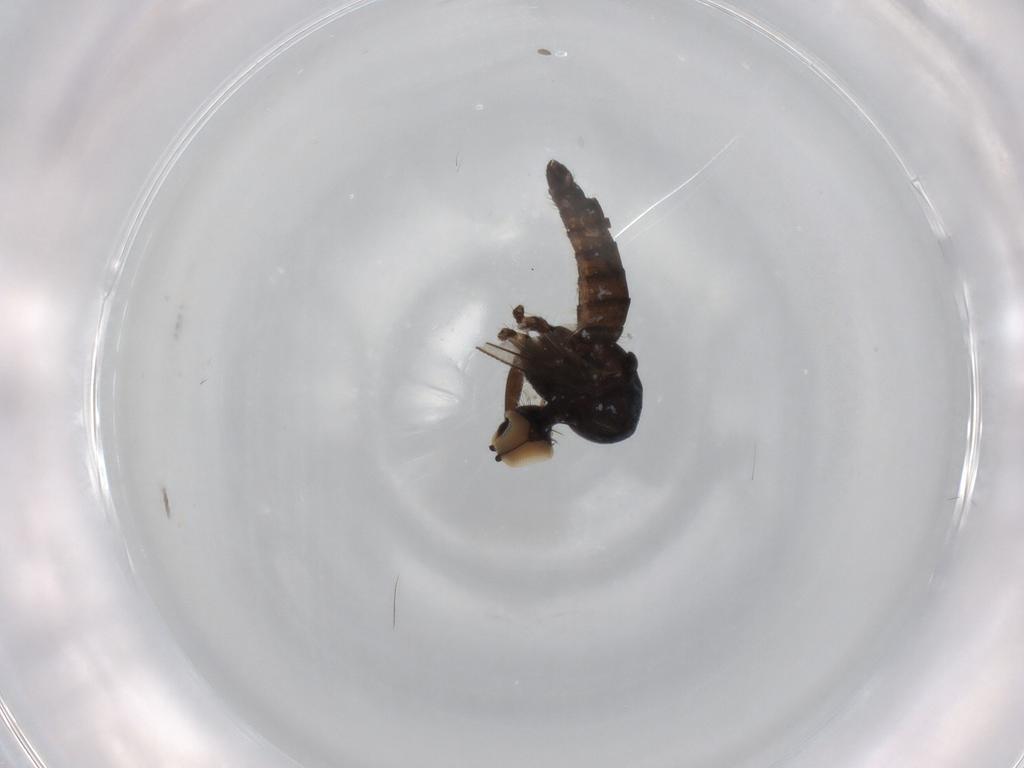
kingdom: Animalia
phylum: Arthropoda
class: Insecta
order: Diptera
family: Hybotidae
